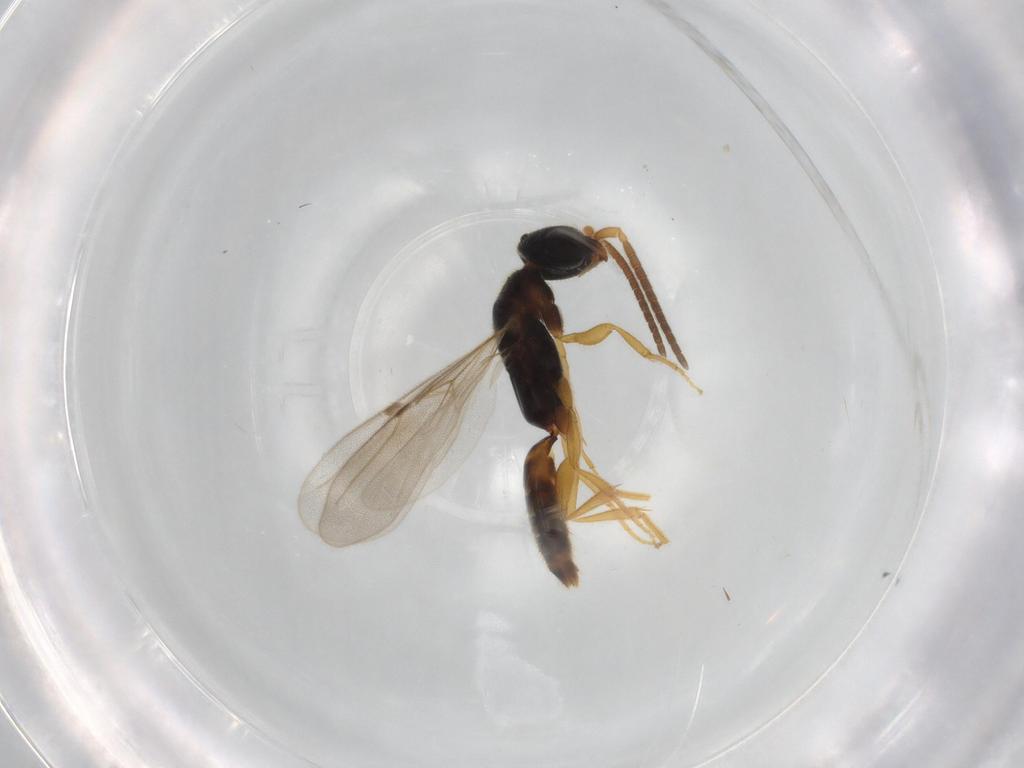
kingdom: Animalia
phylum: Arthropoda
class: Insecta
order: Hymenoptera
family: Bethylidae
